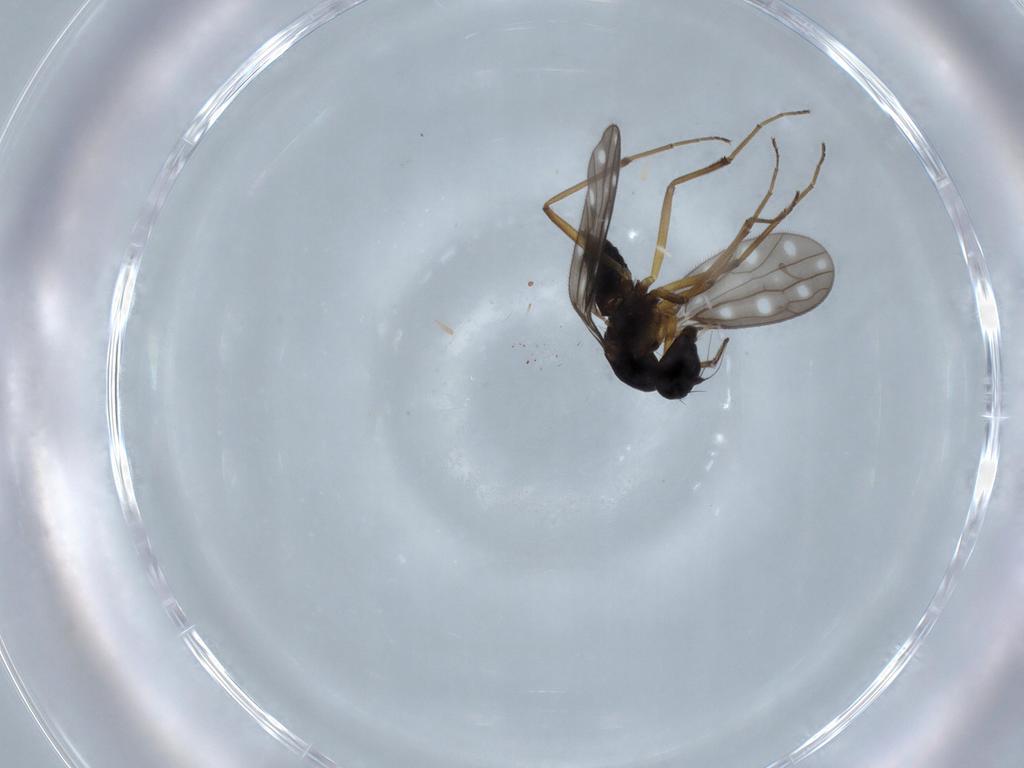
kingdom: Animalia
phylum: Arthropoda
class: Insecta
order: Diptera
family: Empididae
